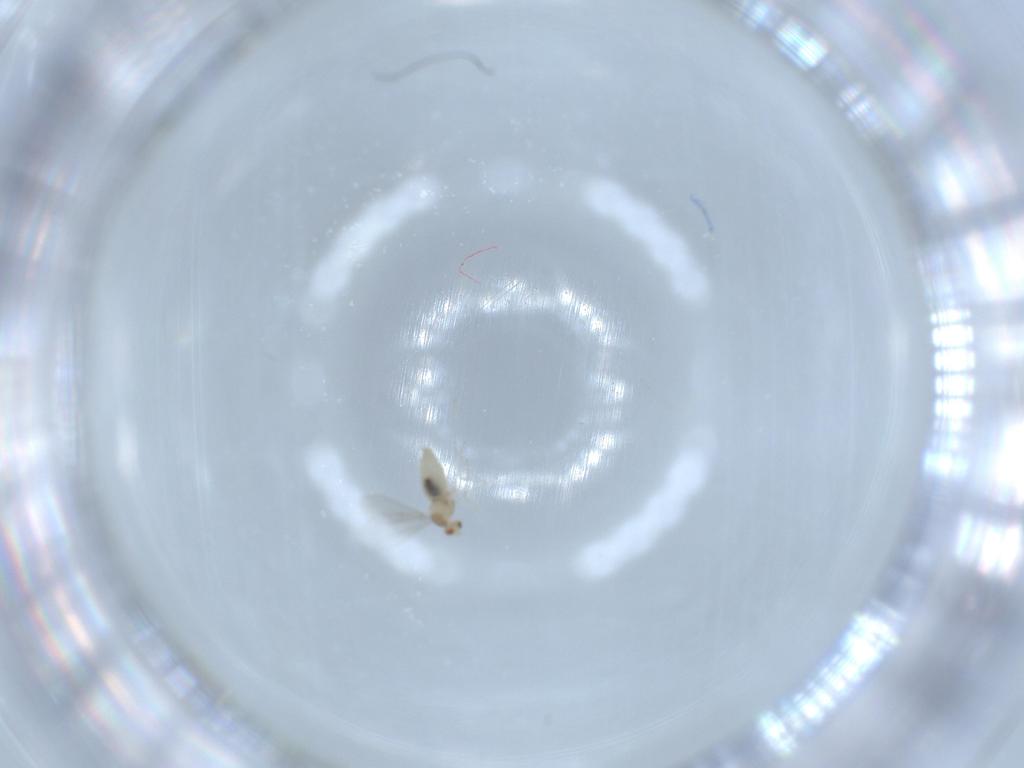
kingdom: Animalia
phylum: Arthropoda
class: Insecta
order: Diptera
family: Cecidomyiidae
